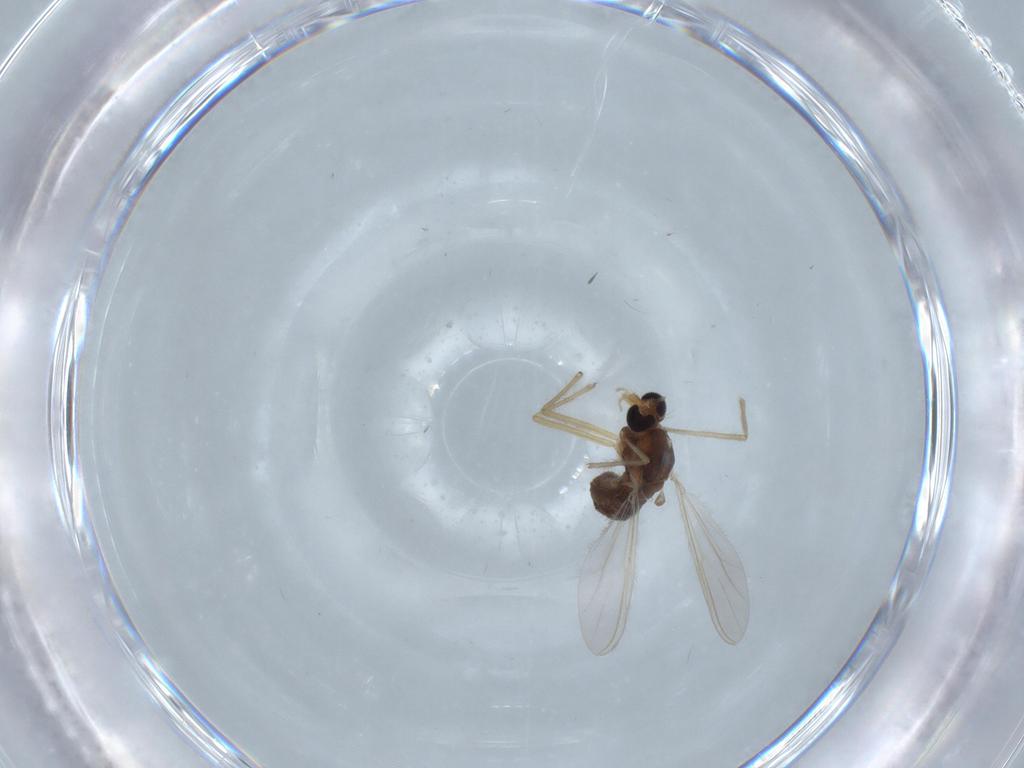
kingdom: Animalia
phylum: Arthropoda
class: Insecta
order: Diptera
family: Chironomidae
